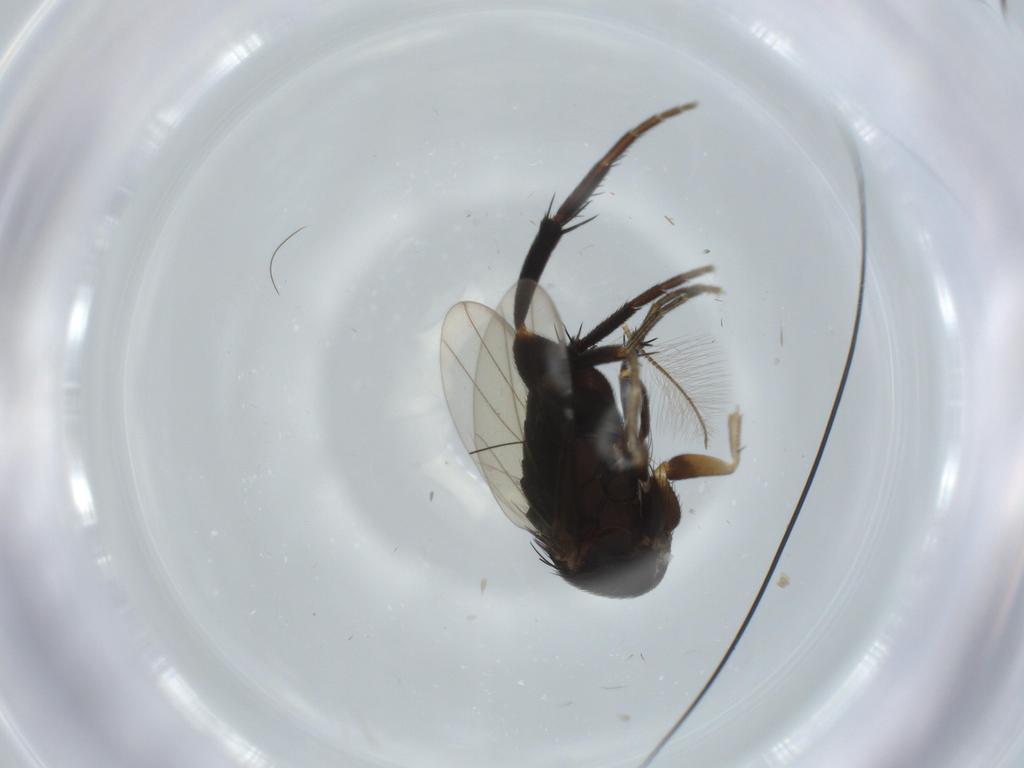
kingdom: Animalia
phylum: Arthropoda
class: Insecta
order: Diptera
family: Phoridae
